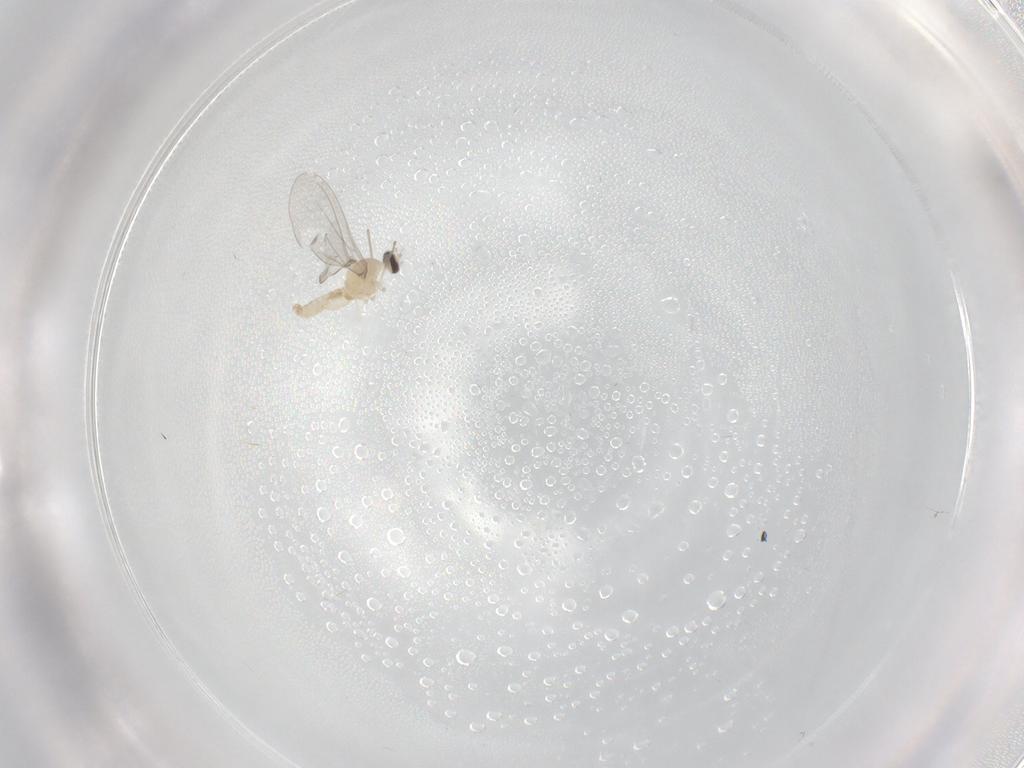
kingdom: Animalia
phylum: Arthropoda
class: Insecta
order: Diptera
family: Cecidomyiidae
